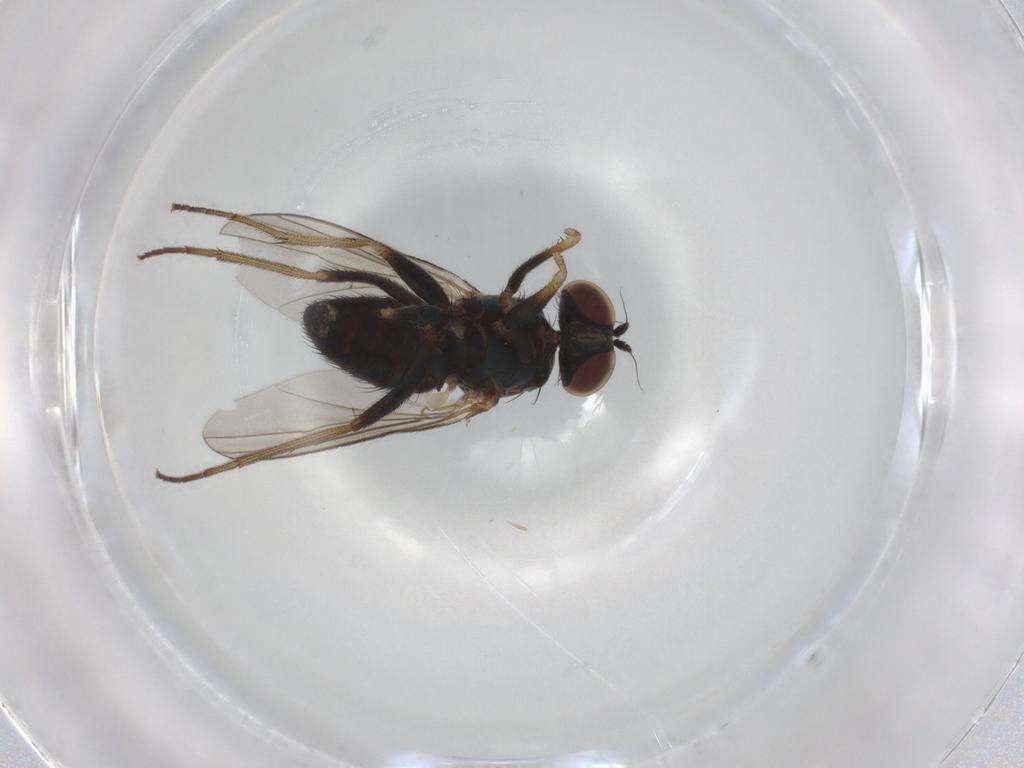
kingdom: Animalia
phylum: Arthropoda
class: Insecta
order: Diptera
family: Dolichopodidae
